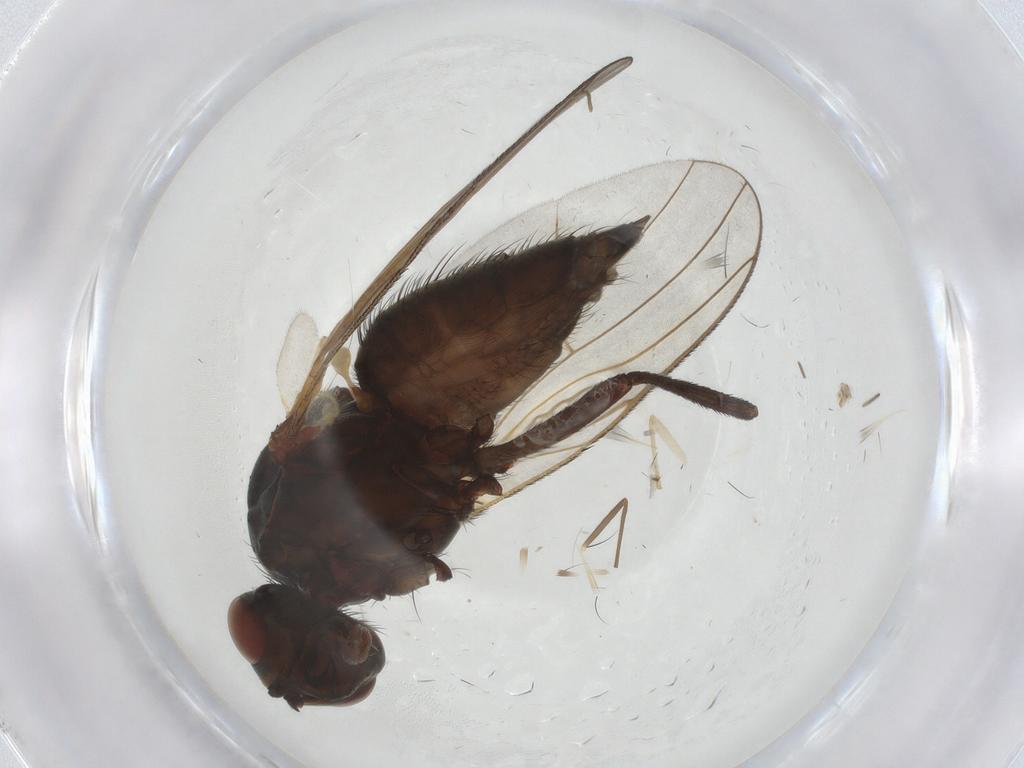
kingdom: Animalia
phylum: Arthropoda
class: Insecta
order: Diptera
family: Anthomyiidae
